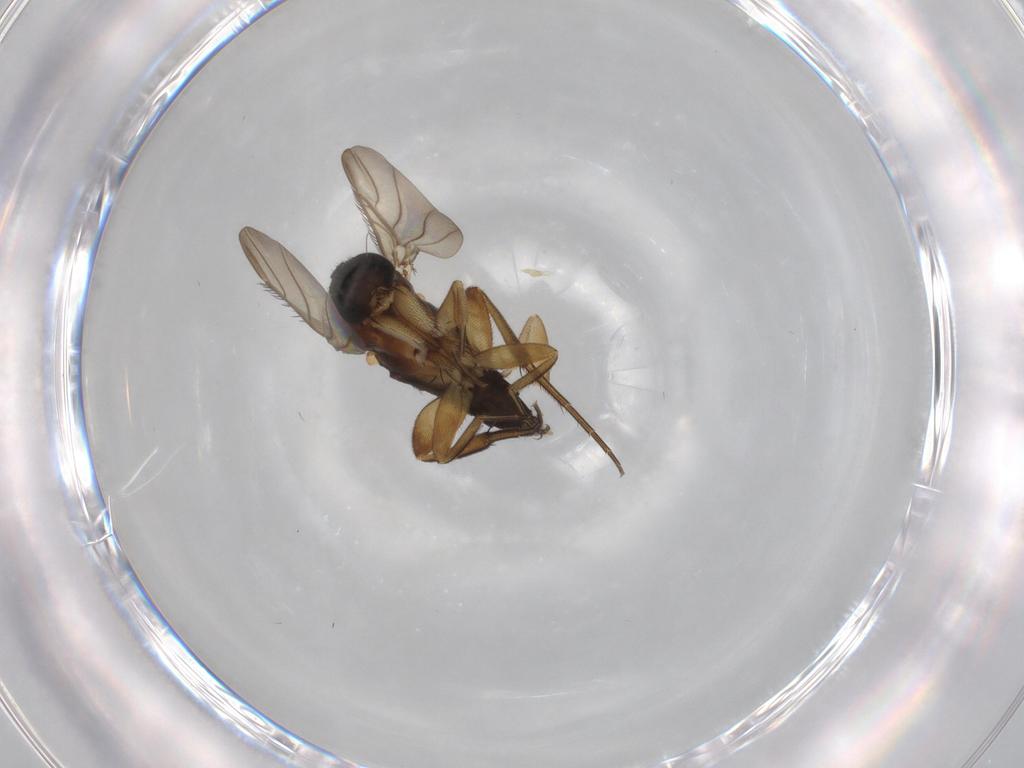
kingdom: Animalia
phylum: Arthropoda
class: Insecta
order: Diptera
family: Phoridae
